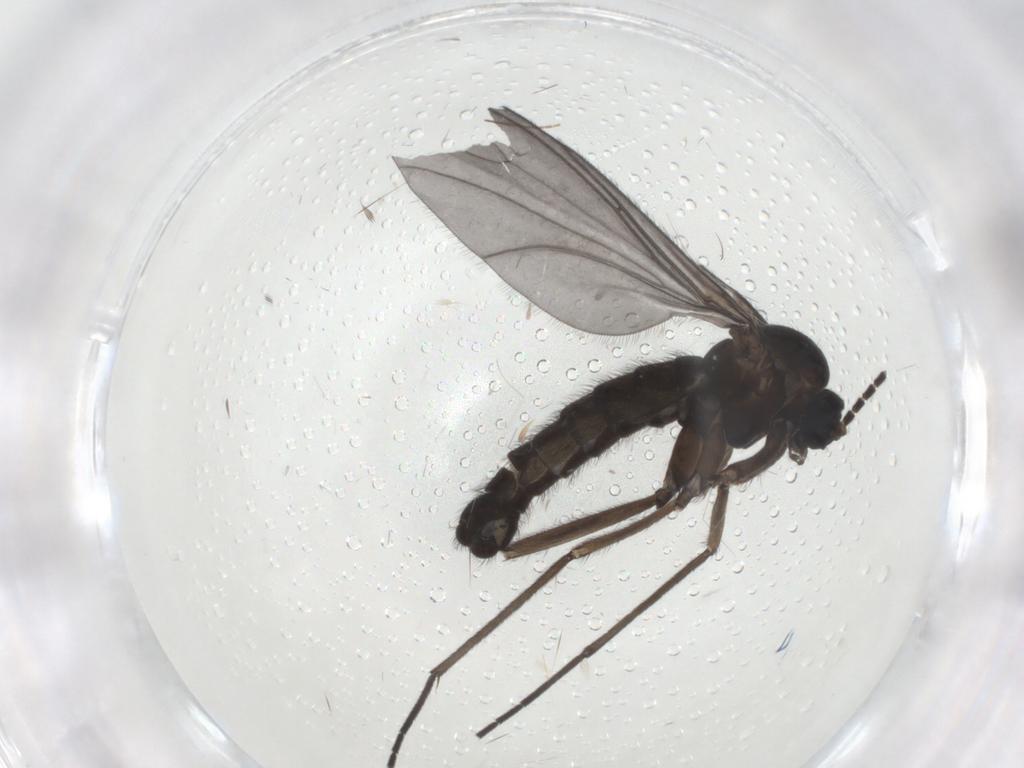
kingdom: Animalia
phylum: Arthropoda
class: Insecta
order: Diptera
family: Sciaridae
